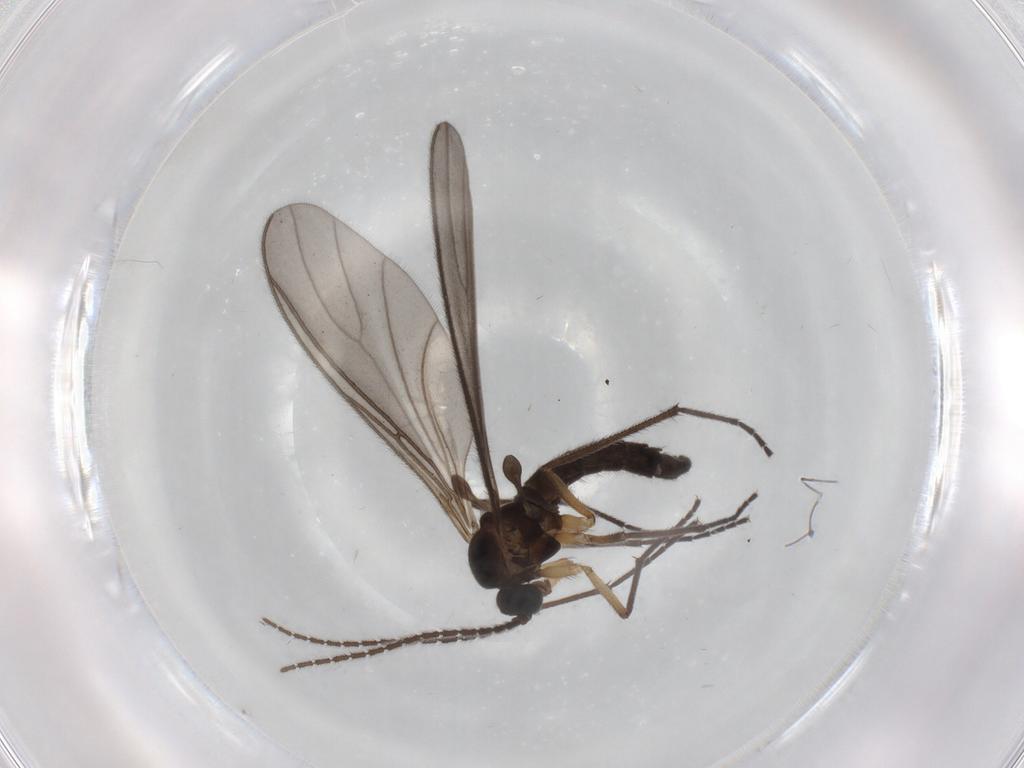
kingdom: Animalia
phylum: Arthropoda
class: Insecta
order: Diptera
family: Sciaridae
